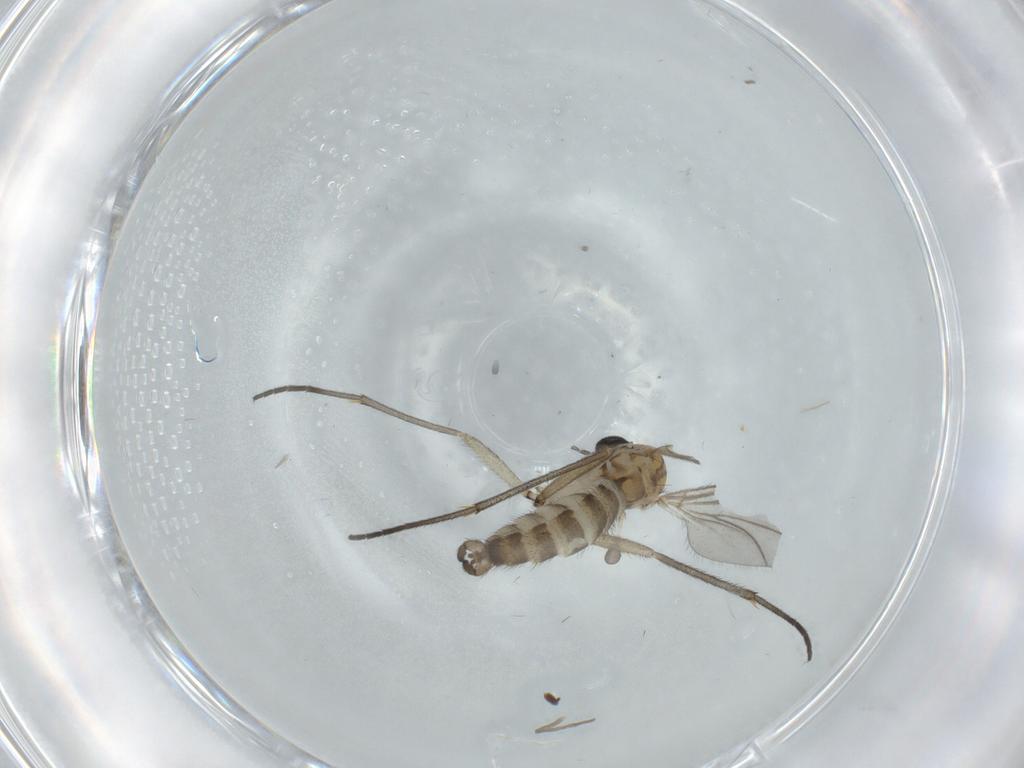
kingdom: Animalia
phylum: Arthropoda
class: Insecta
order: Diptera
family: Sciaridae
